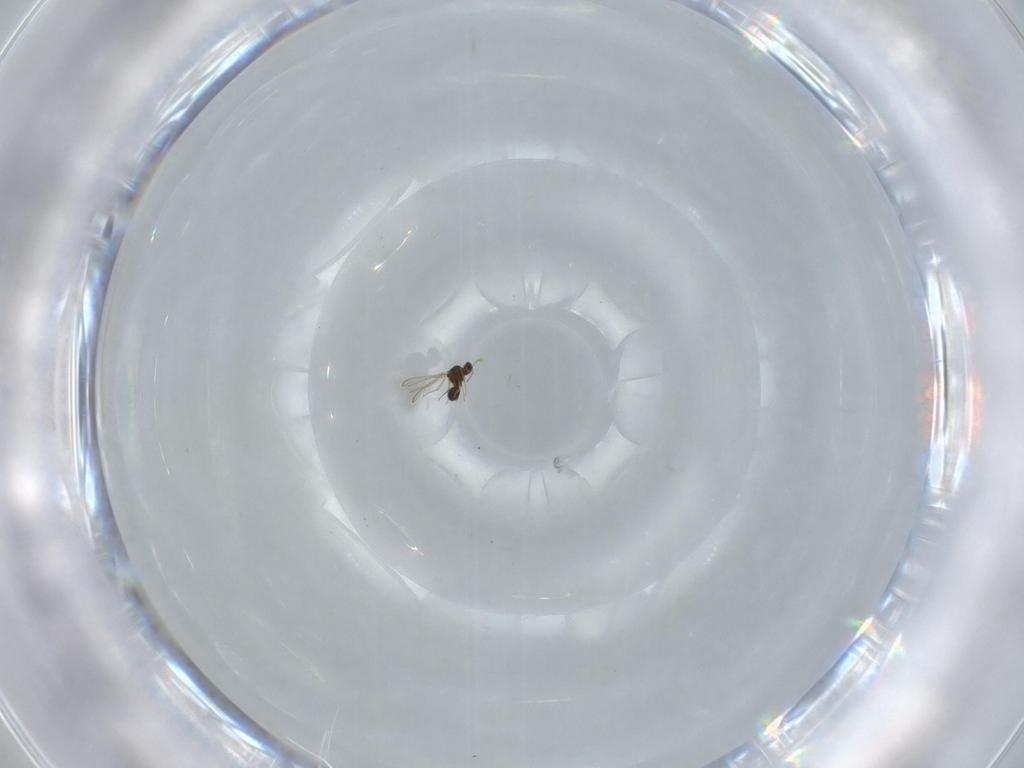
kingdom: Animalia
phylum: Arthropoda
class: Insecta
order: Hymenoptera
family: Mymaridae
